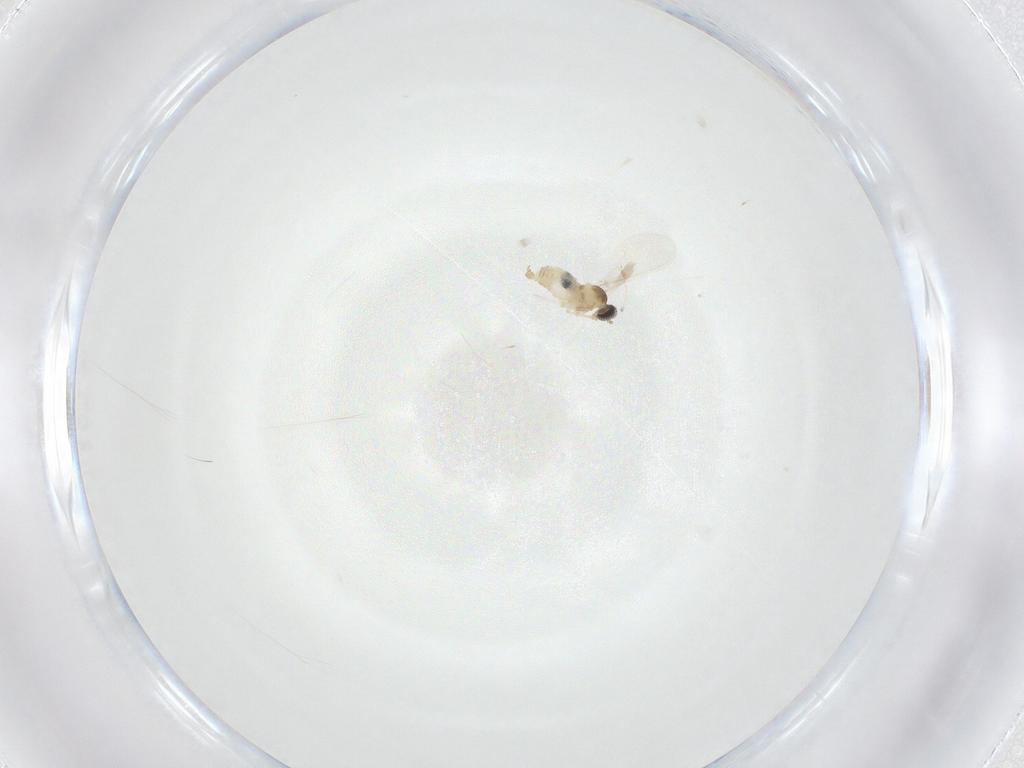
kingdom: Animalia
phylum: Arthropoda
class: Insecta
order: Diptera
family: Cecidomyiidae
